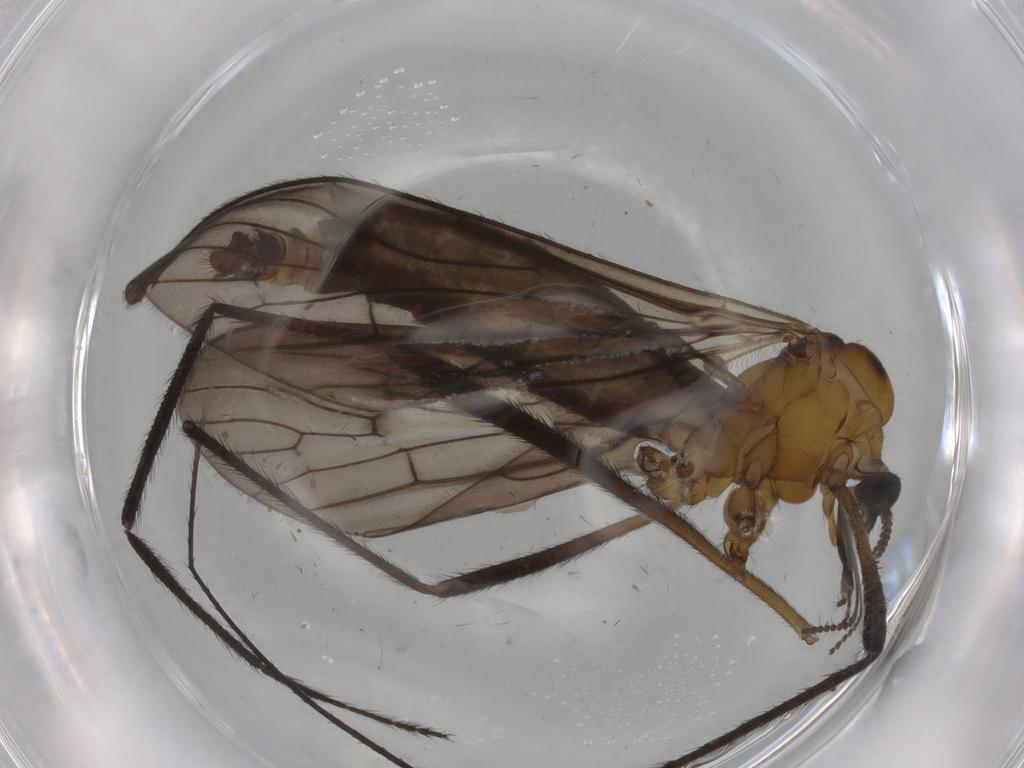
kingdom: Animalia
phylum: Arthropoda
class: Insecta
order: Diptera
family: Limoniidae
